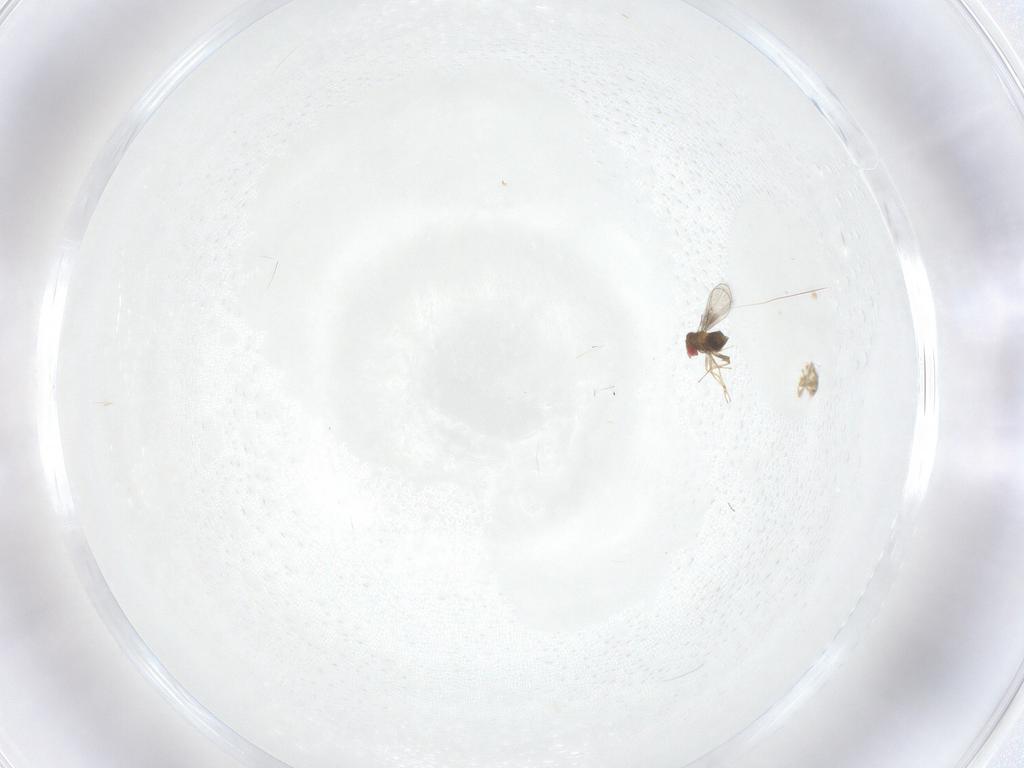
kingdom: Animalia
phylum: Arthropoda
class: Insecta
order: Hymenoptera
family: Trichogrammatidae
